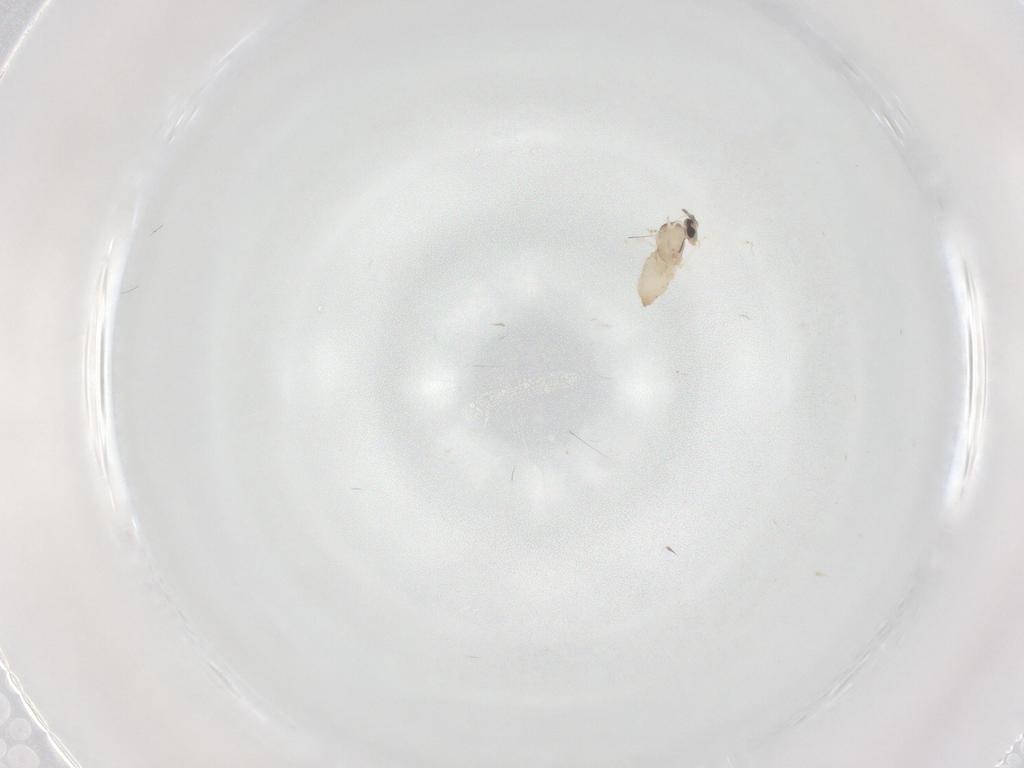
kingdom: Animalia
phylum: Arthropoda
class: Insecta
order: Diptera
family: Cecidomyiidae
